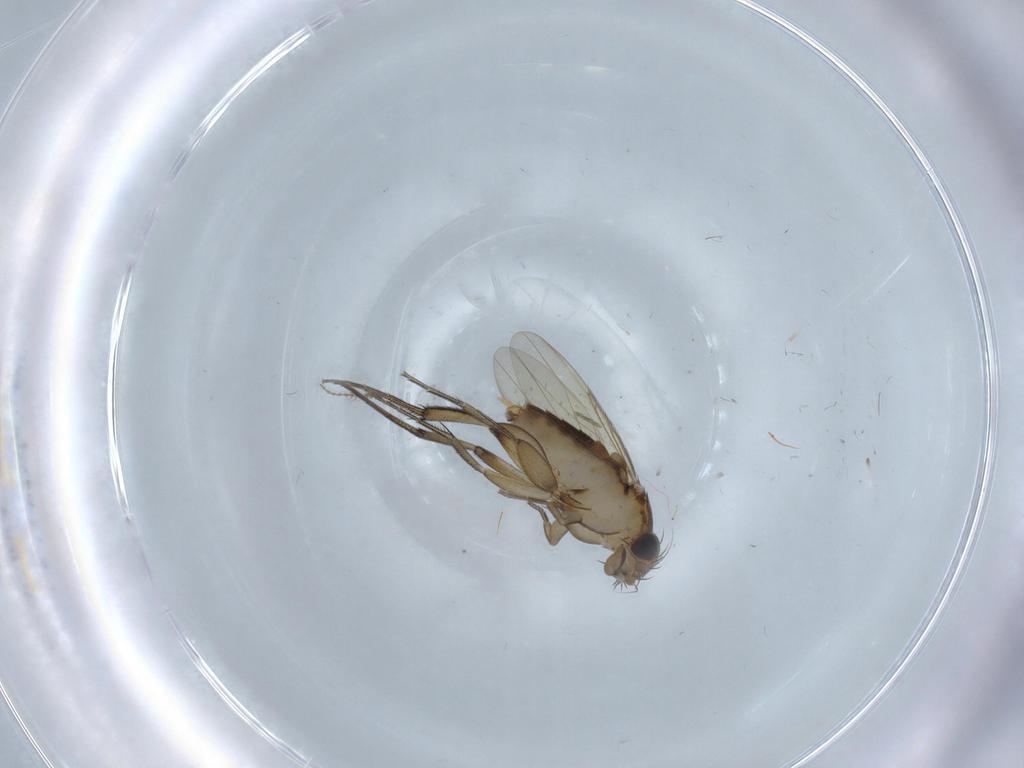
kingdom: Animalia
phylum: Arthropoda
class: Insecta
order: Diptera
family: Phoridae
